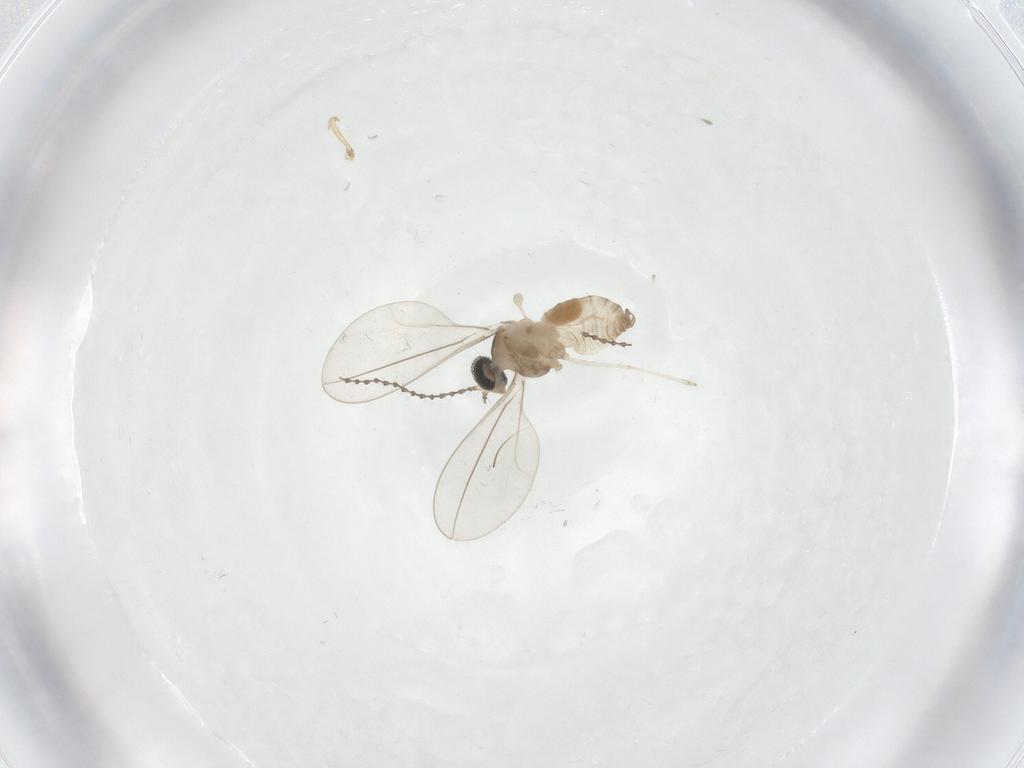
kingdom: Animalia
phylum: Arthropoda
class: Insecta
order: Diptera
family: Cecidomyiidae
